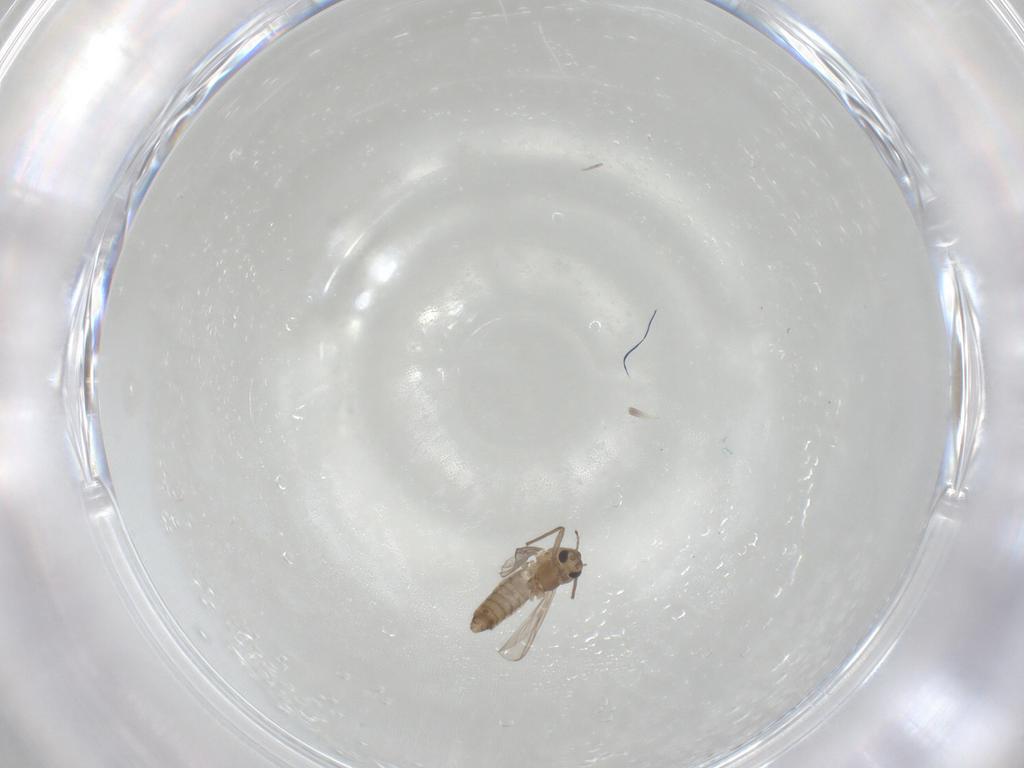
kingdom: Animalia
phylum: Arthropoda
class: Insecta
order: Diptera
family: Chironomidae
